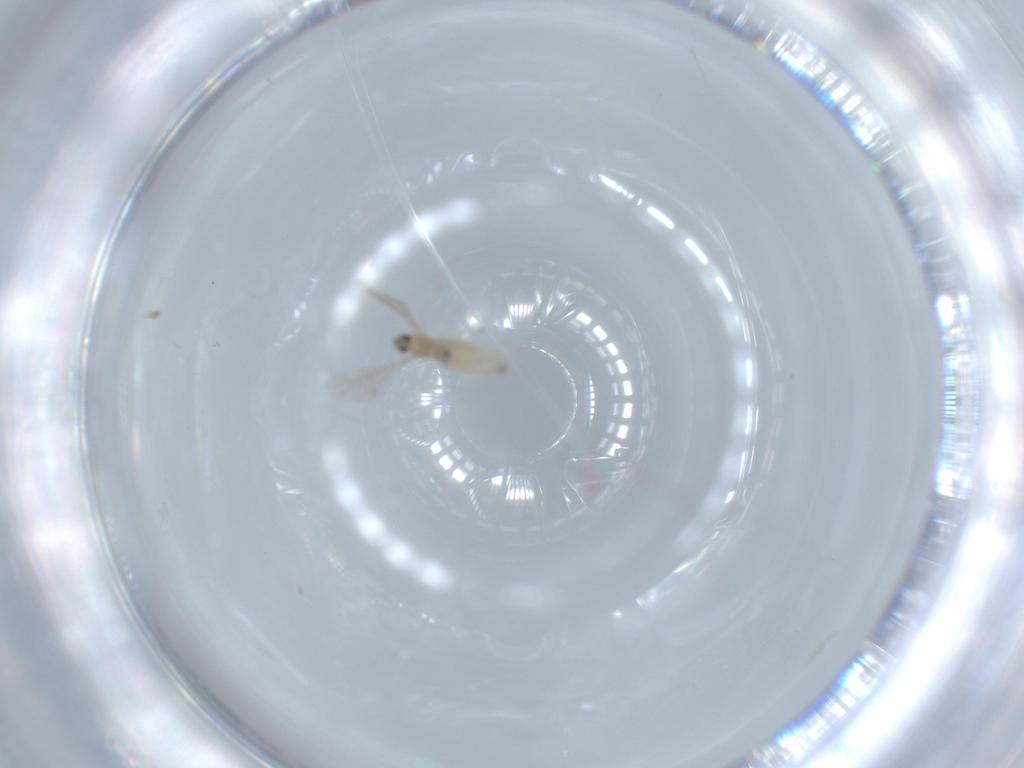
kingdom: Animalia
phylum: Arthropoda
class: Insecta
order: Diptera
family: Cecidomyiidae
